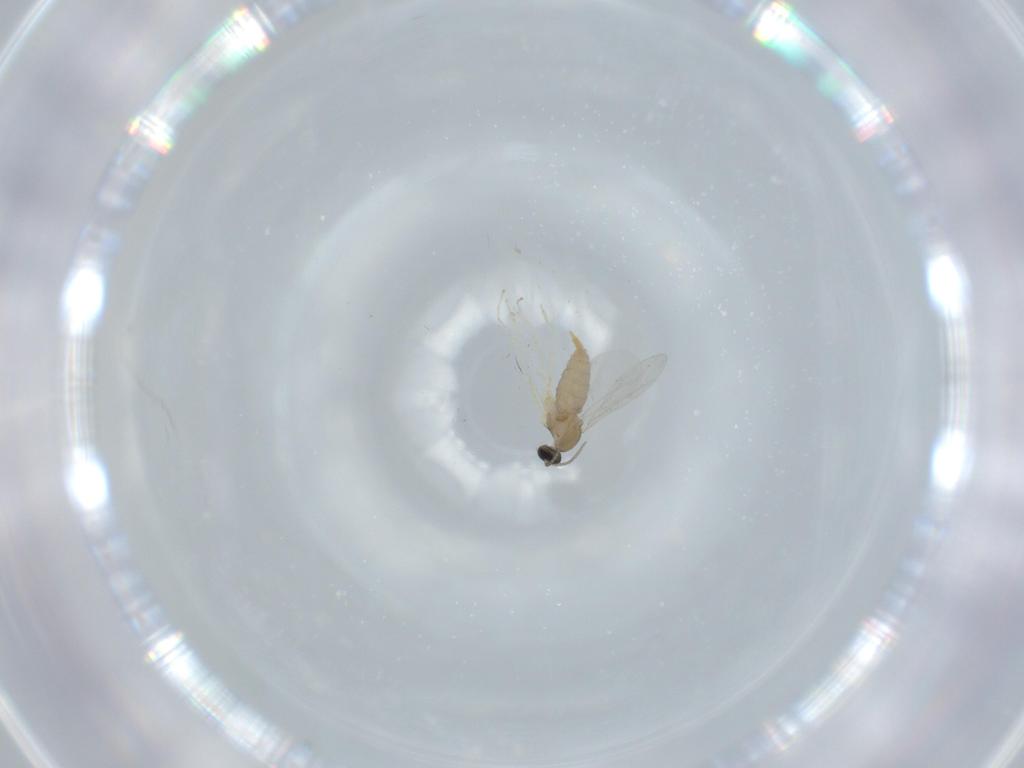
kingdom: Animalia
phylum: Arthropoda
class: Insecta
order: Diptera
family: Cecidomyiidae
